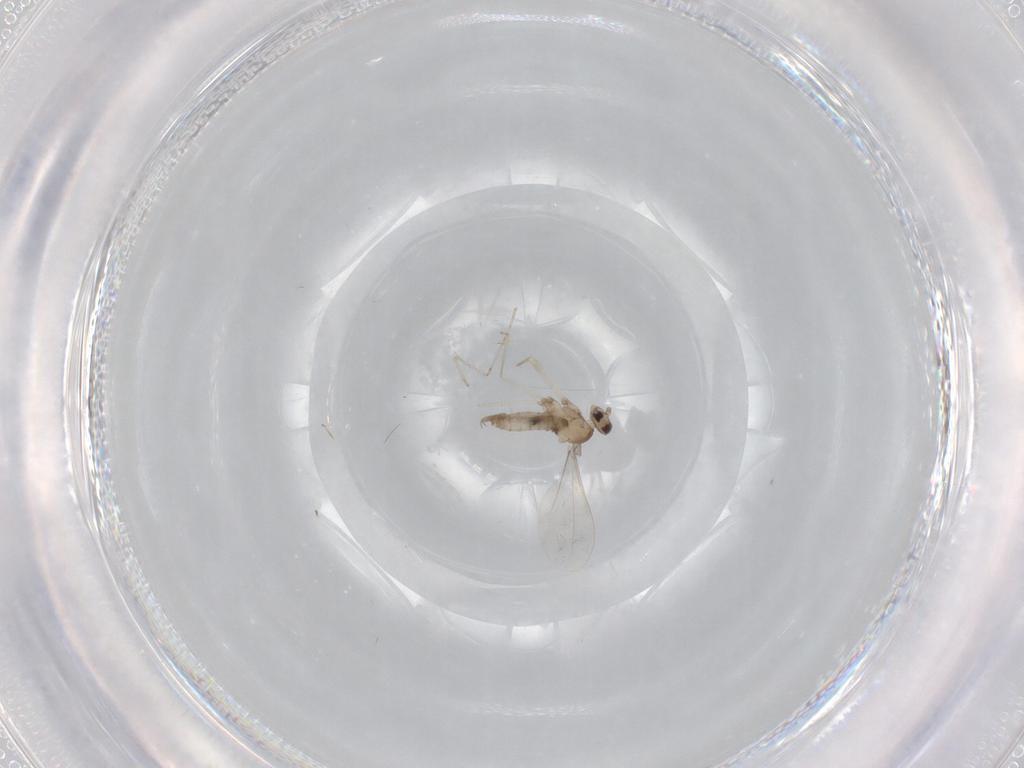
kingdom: Animalia
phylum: Arthropoda
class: Insecta
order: Diptera
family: Cecidomyiidae
